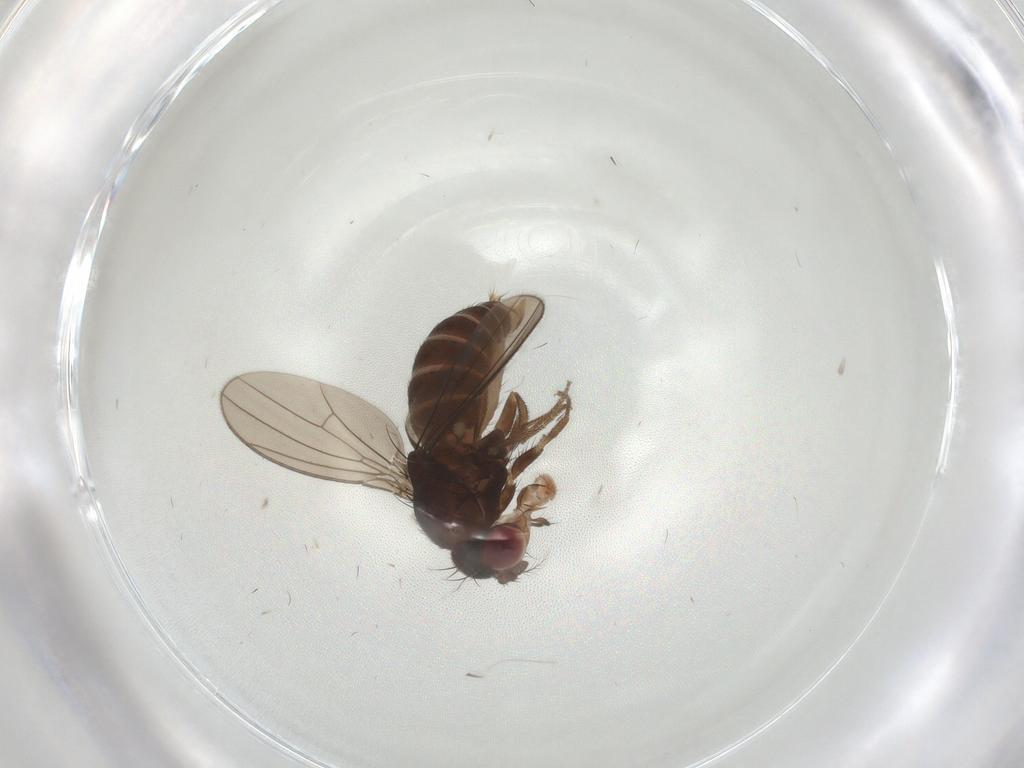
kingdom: Animalia
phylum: Arthropoda
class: Insecta
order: Diptera
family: Drosophilidae
